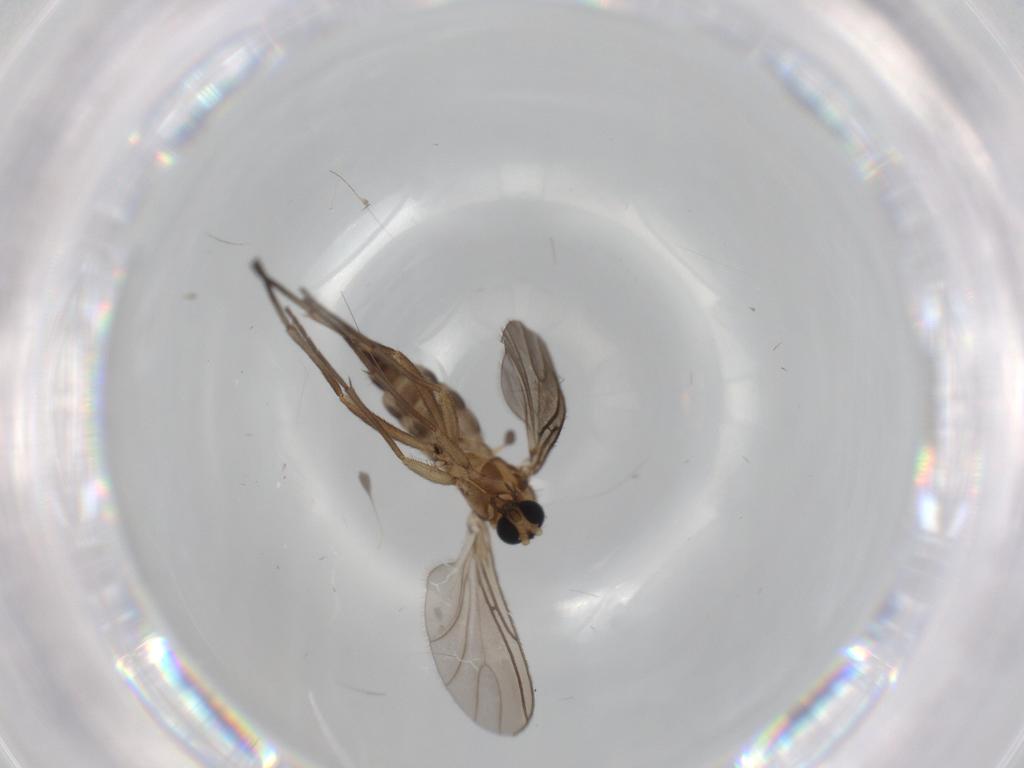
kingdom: Animalia
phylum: Arthropoda
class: Insecta
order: Diptera
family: Sciaridae
